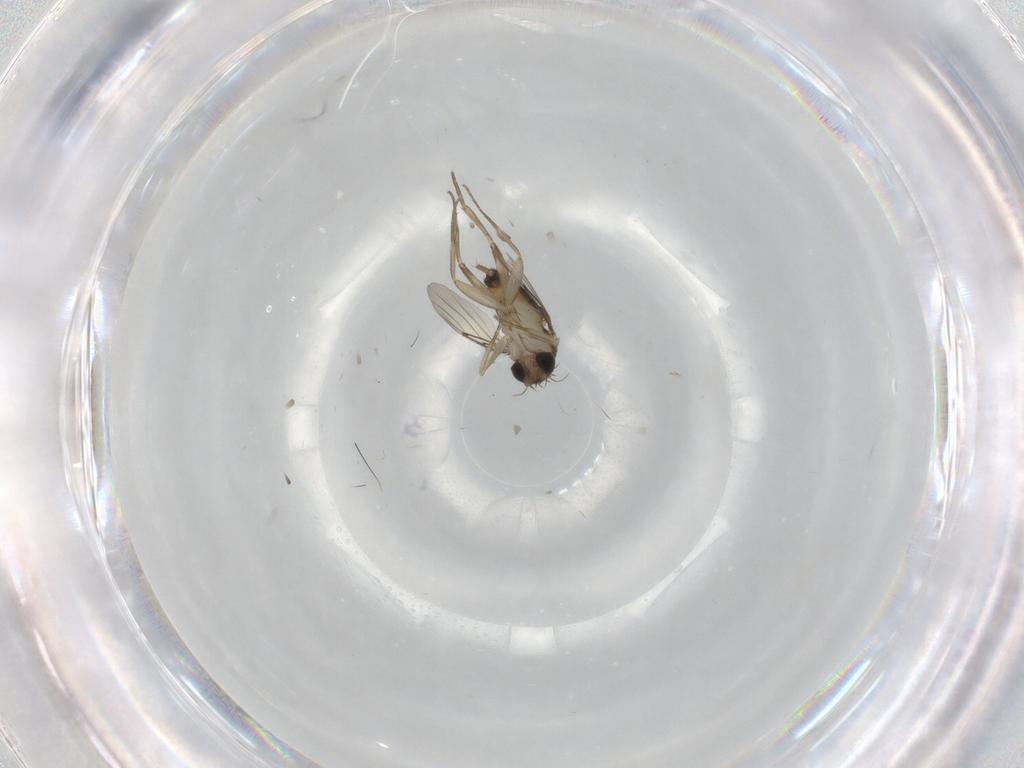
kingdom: Animalia
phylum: Arthropoda
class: Insecta
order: Diptera
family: Phoridae
